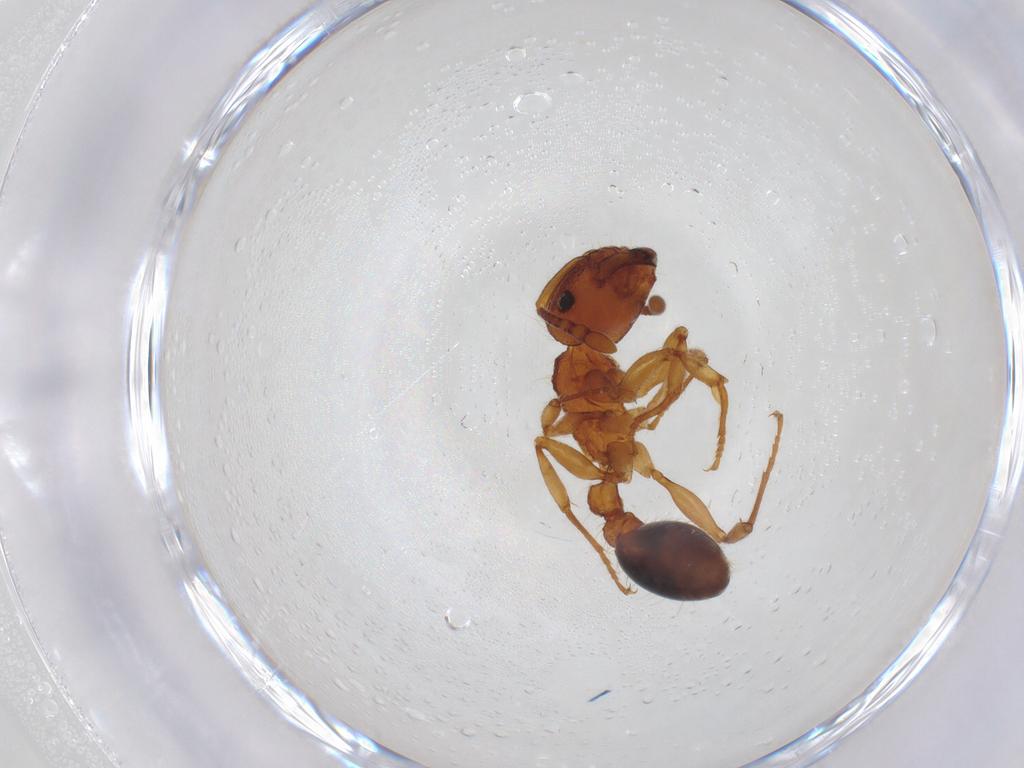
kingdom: Animalia
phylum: Arthropoda
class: Insecta
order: Hymenoptera
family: Formicidae
